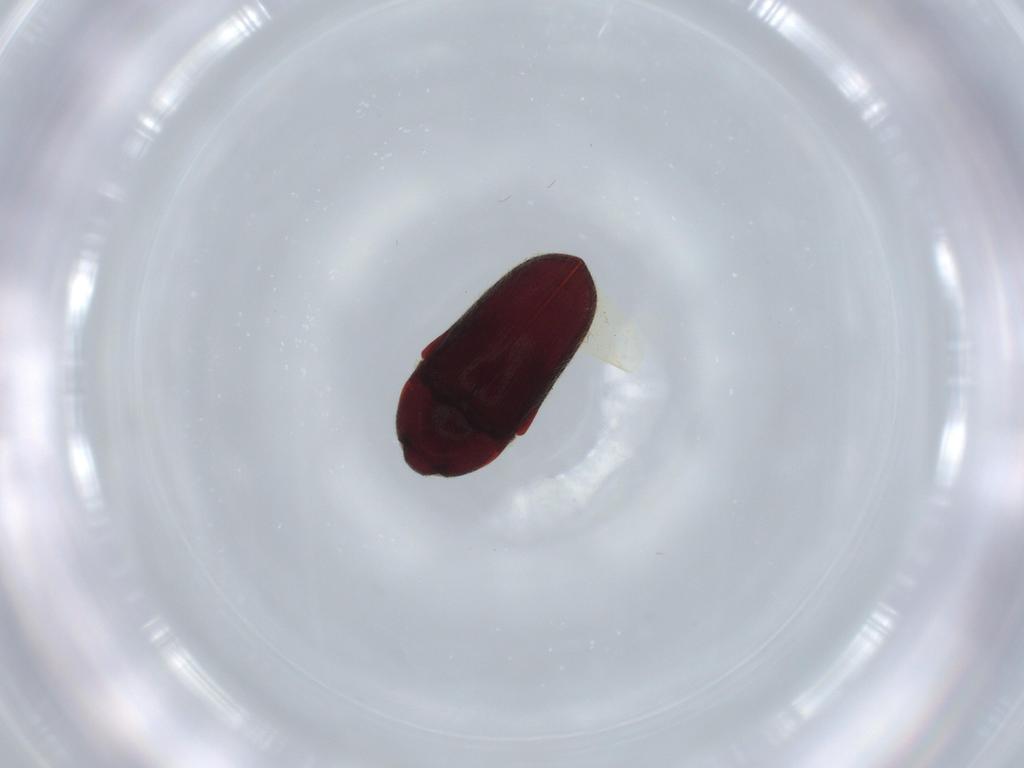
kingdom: Animalia
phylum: Arthropoda
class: Insecta
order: Coleoptera
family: Throscidae
